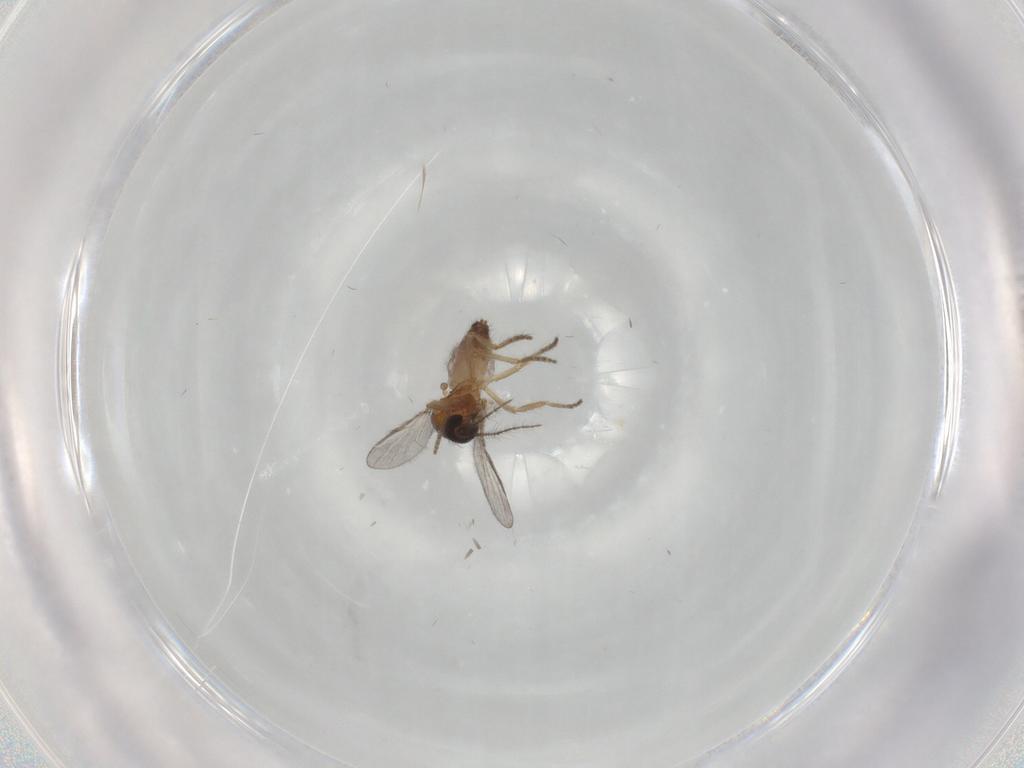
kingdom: Animalia
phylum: Arthropoda
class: Insecta
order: Diptera
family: Ceratopogonidae
